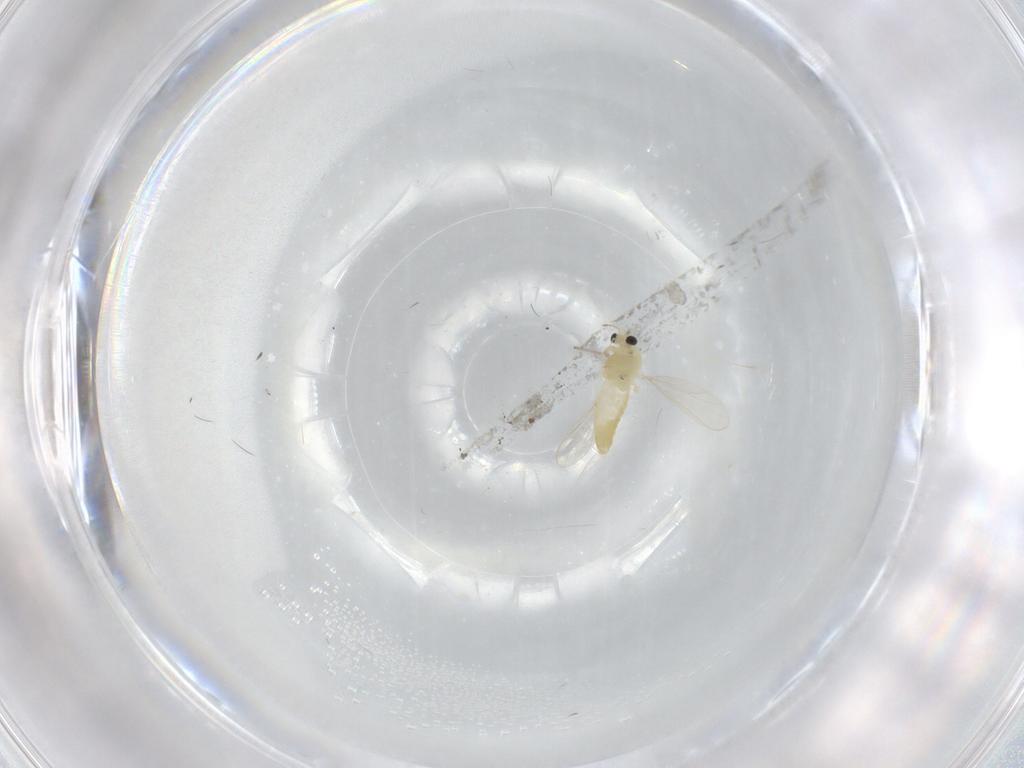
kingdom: Animalia
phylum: Arthropoda
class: Insecta
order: Diptera
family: Chironomidae
